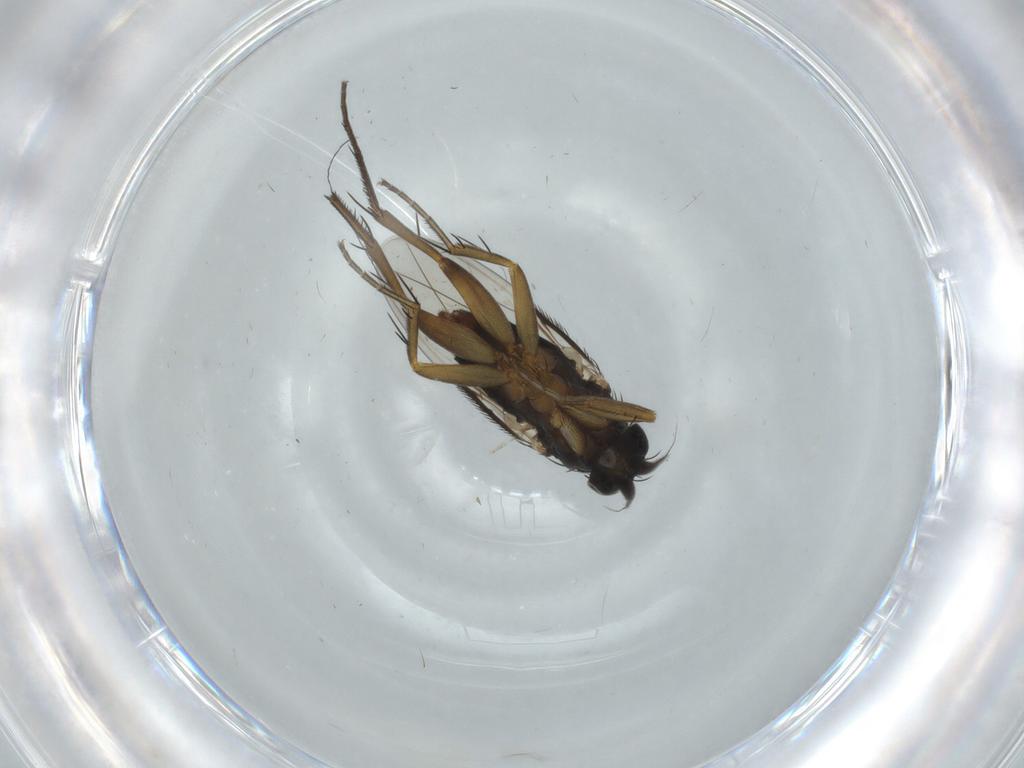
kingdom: Animalia
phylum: Arthropoda
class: Insecta
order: Diptera
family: Phoridae
